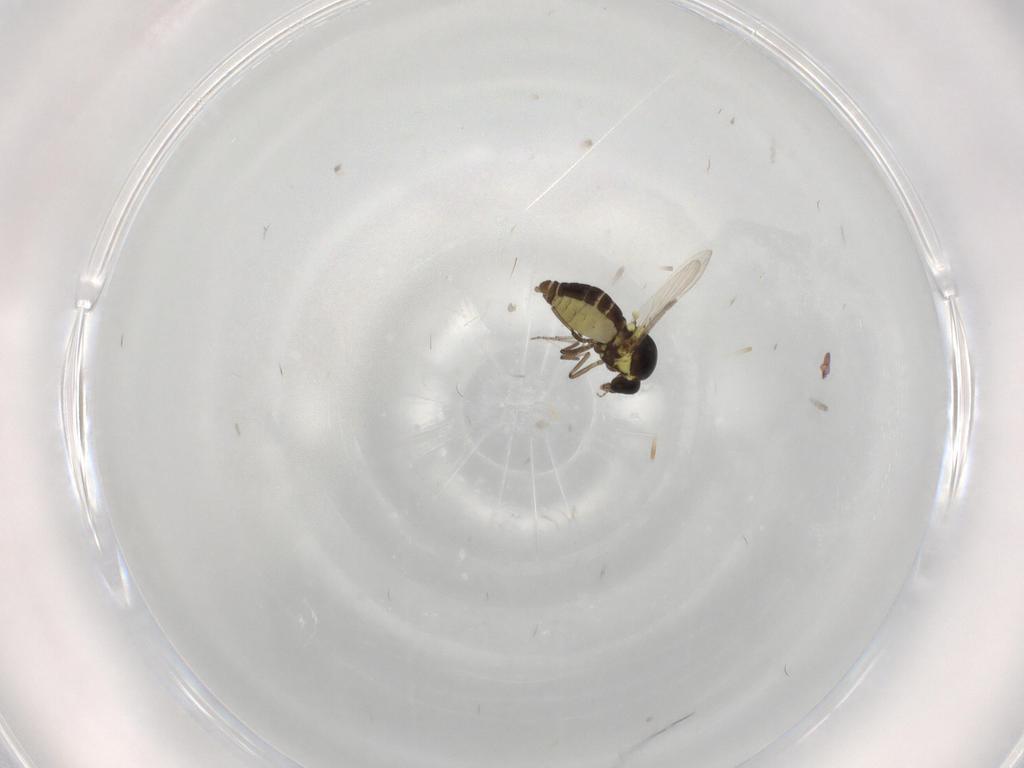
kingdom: Animalia
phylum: Arthropoda
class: Insecta
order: Diptera
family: Ceratopogonidae
